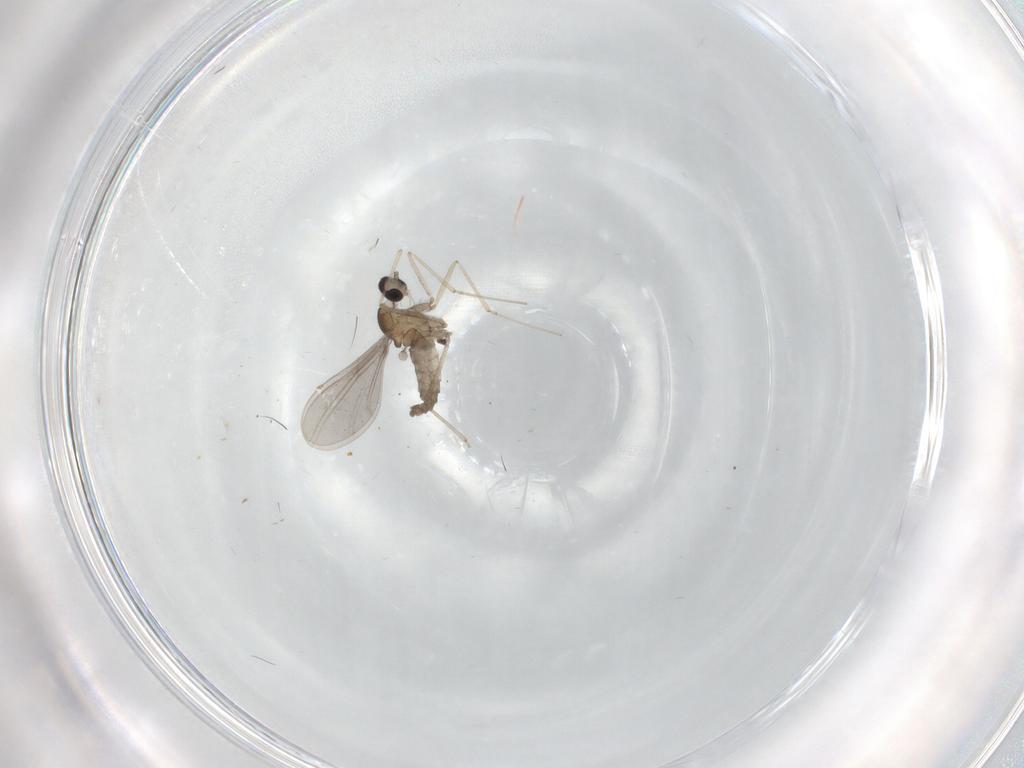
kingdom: Animalia
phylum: Arthropoda
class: Insecta
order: Diptera
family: Cecidomyiidae
